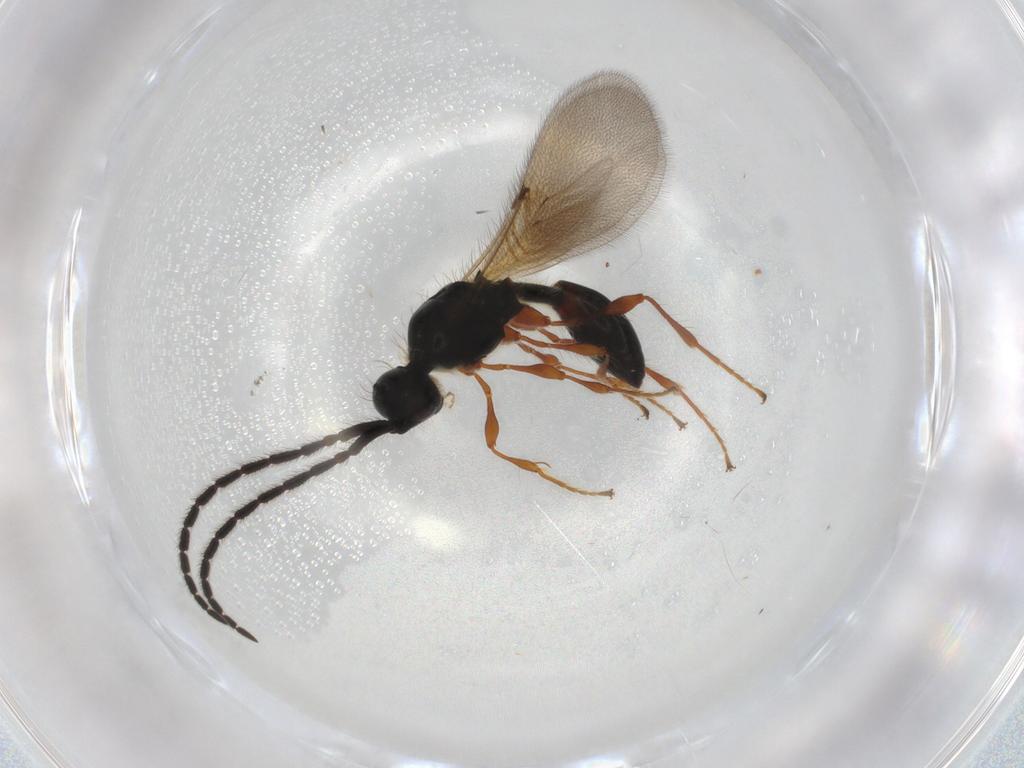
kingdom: Animalia
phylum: Arthropoda
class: Insecta
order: Hymenoptera
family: Diapriidae
